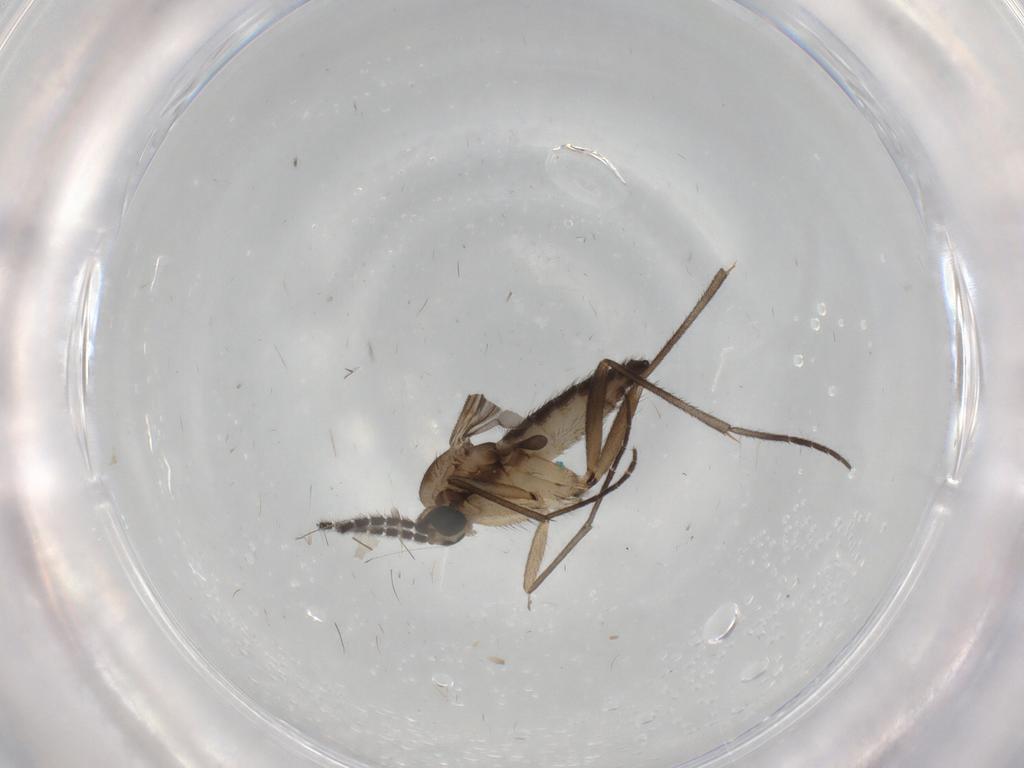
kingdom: Animalia
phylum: Arthropoda
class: Insecta
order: Diptera
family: Sciaridae
